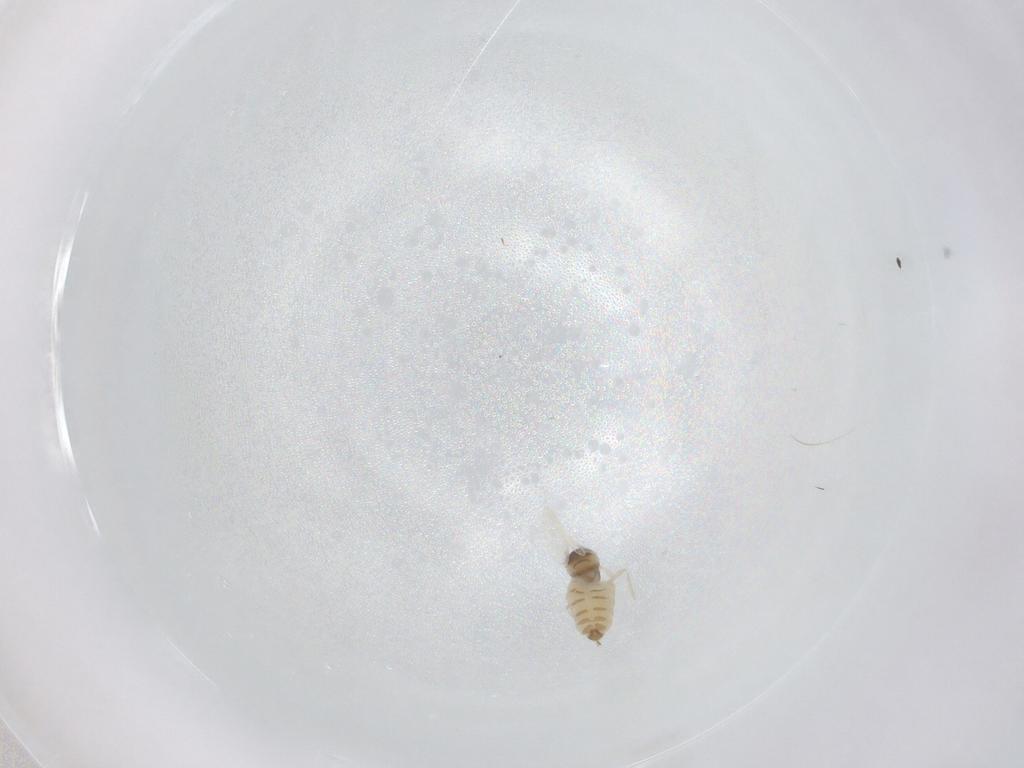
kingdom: Animalia
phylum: Arthropoda
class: Insecta
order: Diptera
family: Cecidomyiidae
